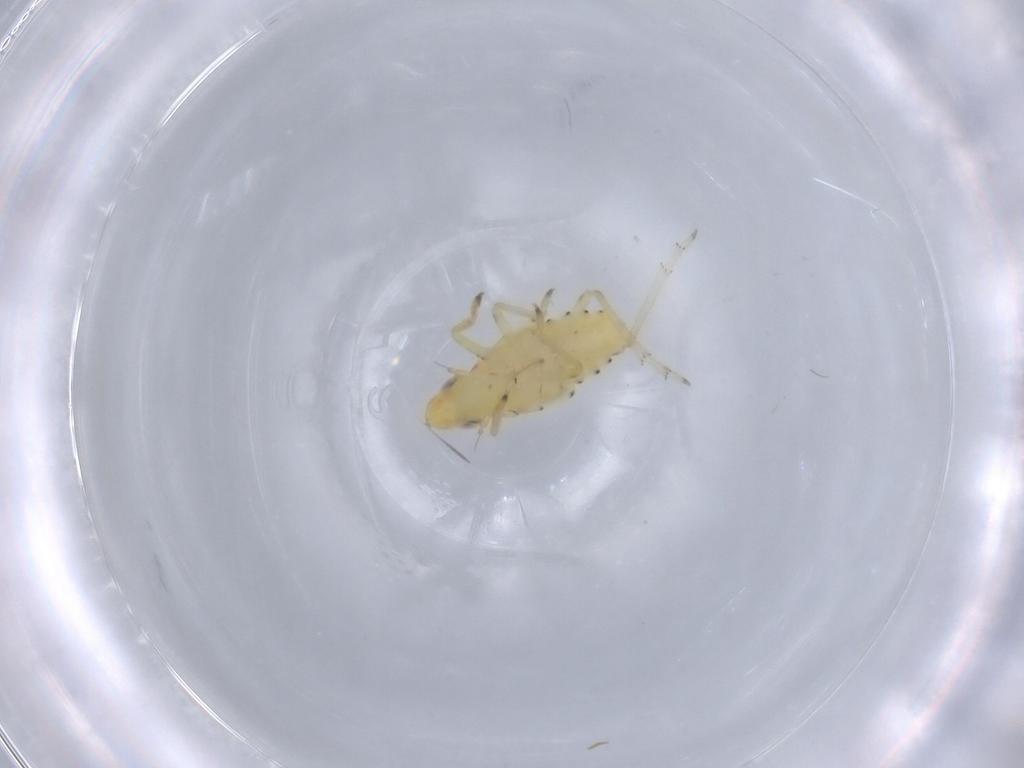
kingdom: Animalia
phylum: Arthropoda
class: Insecta
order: Hemiptera
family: Tropiduchidae
